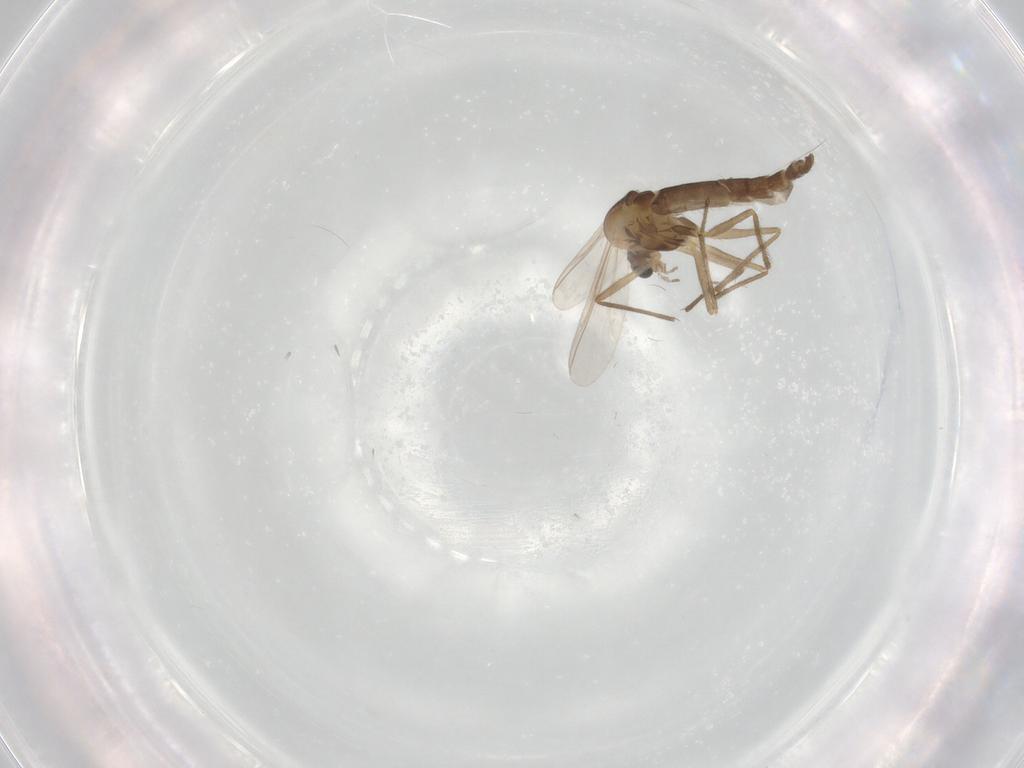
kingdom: Animalia
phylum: Arthropoda
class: Insecta
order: Diptera
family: Chironomidae
